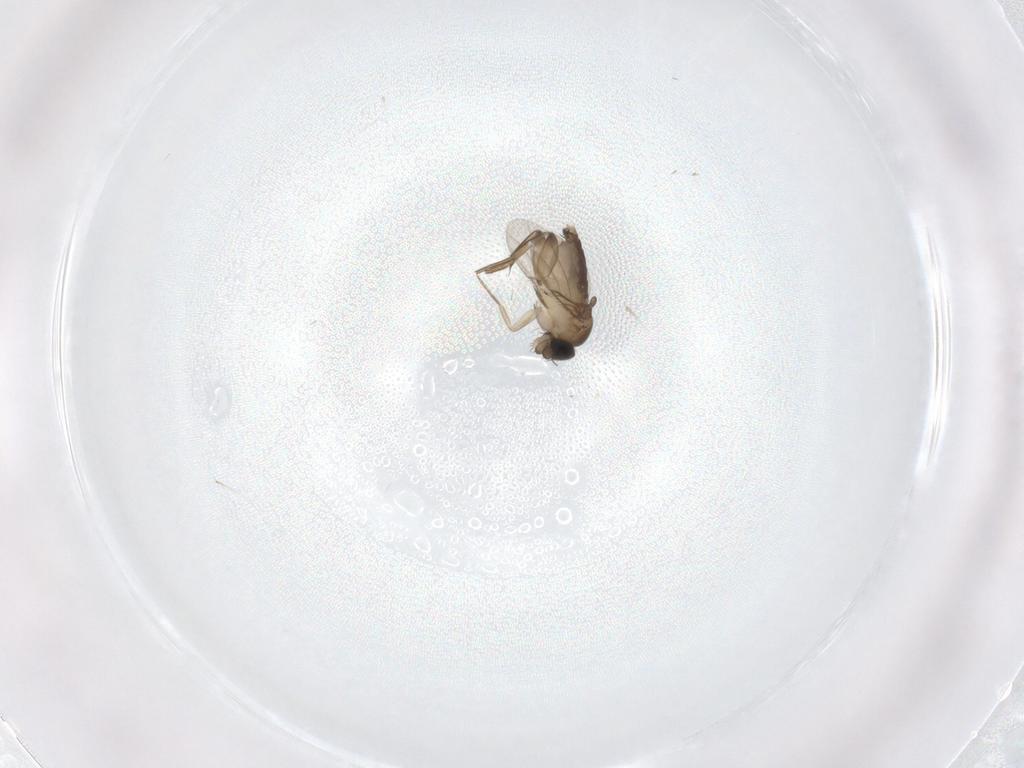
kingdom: Animalia
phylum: Arthropoda
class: Insecta
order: Diptera
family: Phoridae
